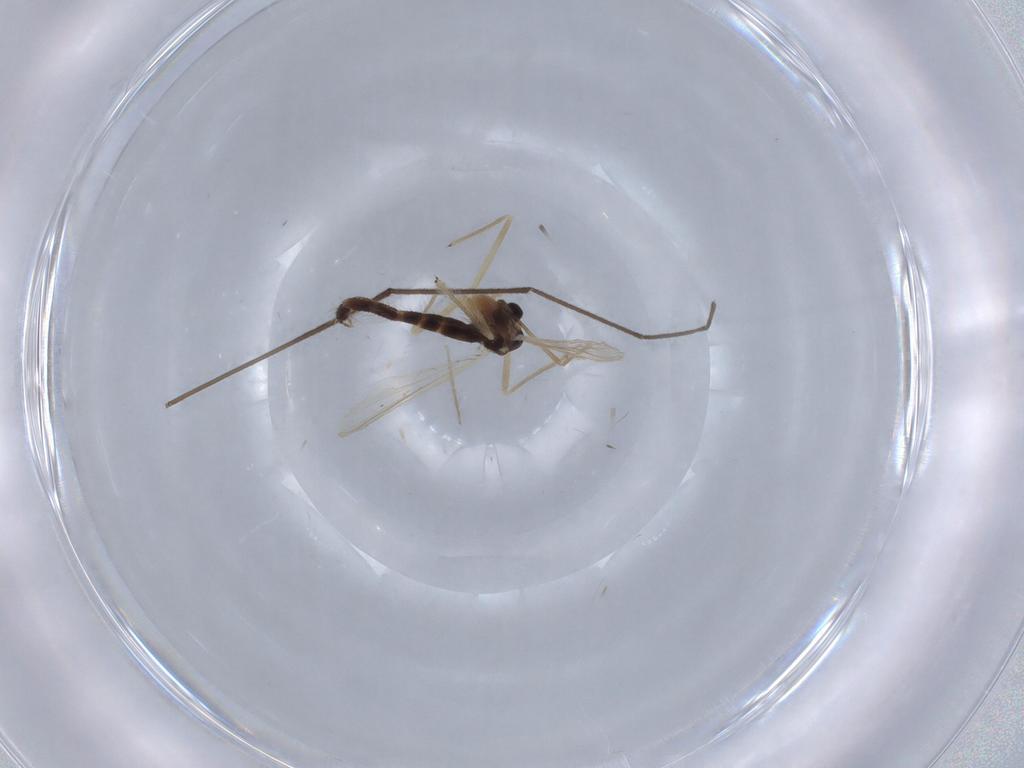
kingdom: Animalia
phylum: Arthropoda
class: Insecta
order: Diptera
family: Chironomidae
